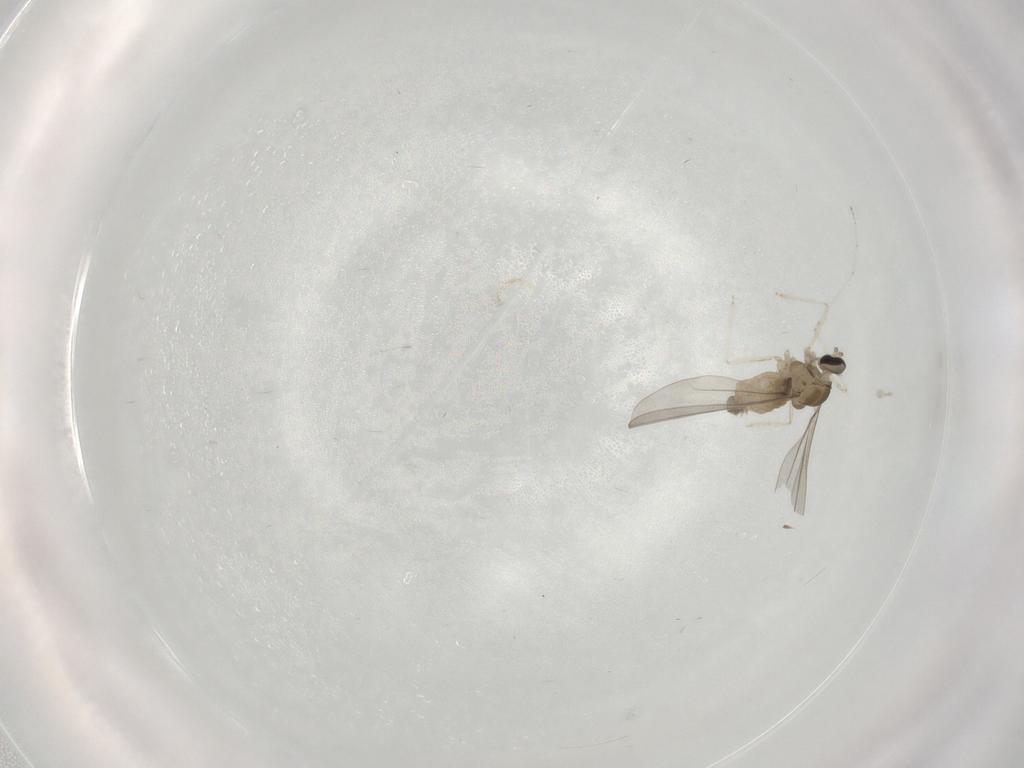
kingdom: Animalia
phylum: Arthropoda
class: Insecta
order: Diptera
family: Cecidomyiidae
